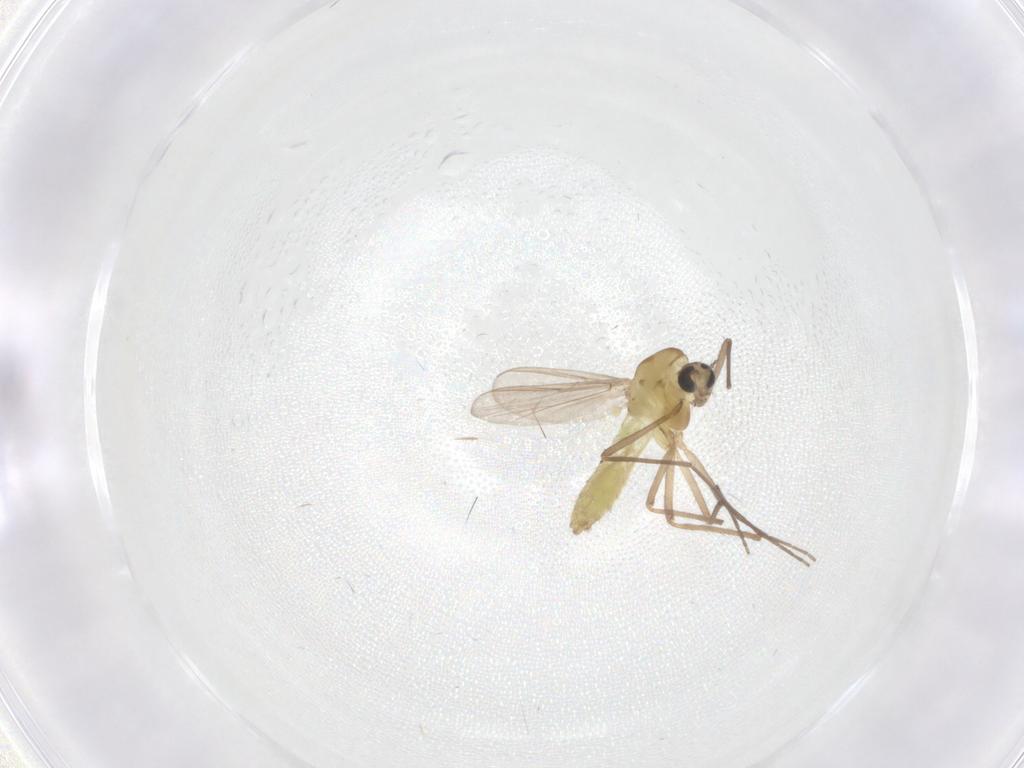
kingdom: Animalia
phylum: Arthropoda
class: Insecta
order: Diptera
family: Chironomidae
